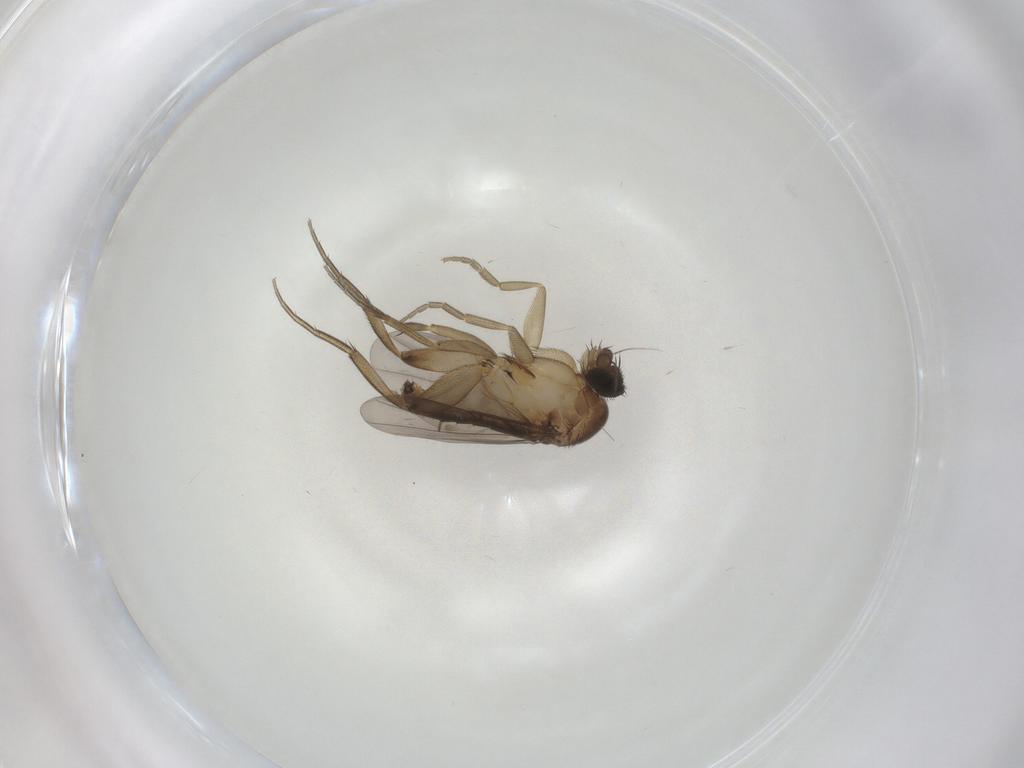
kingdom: Animalia
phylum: Arthropoda
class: Insecta
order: Diptera
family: Phoridae
